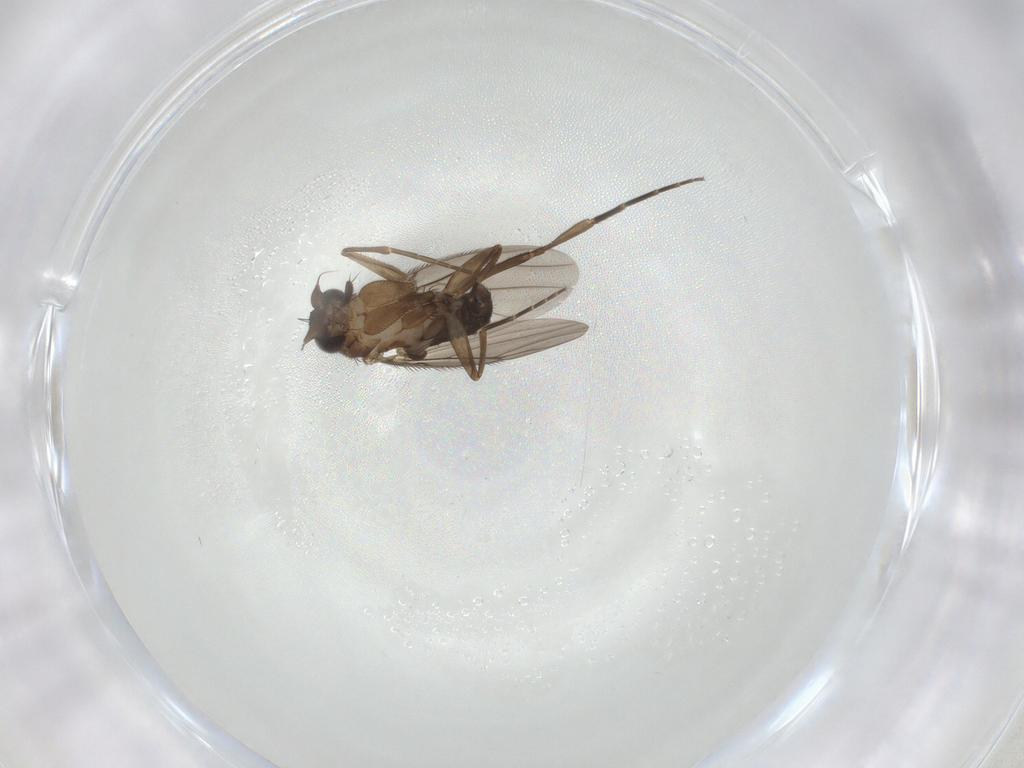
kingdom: Animalia
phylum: Arthropoda
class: Insecta
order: Diptera
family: Phoridae
